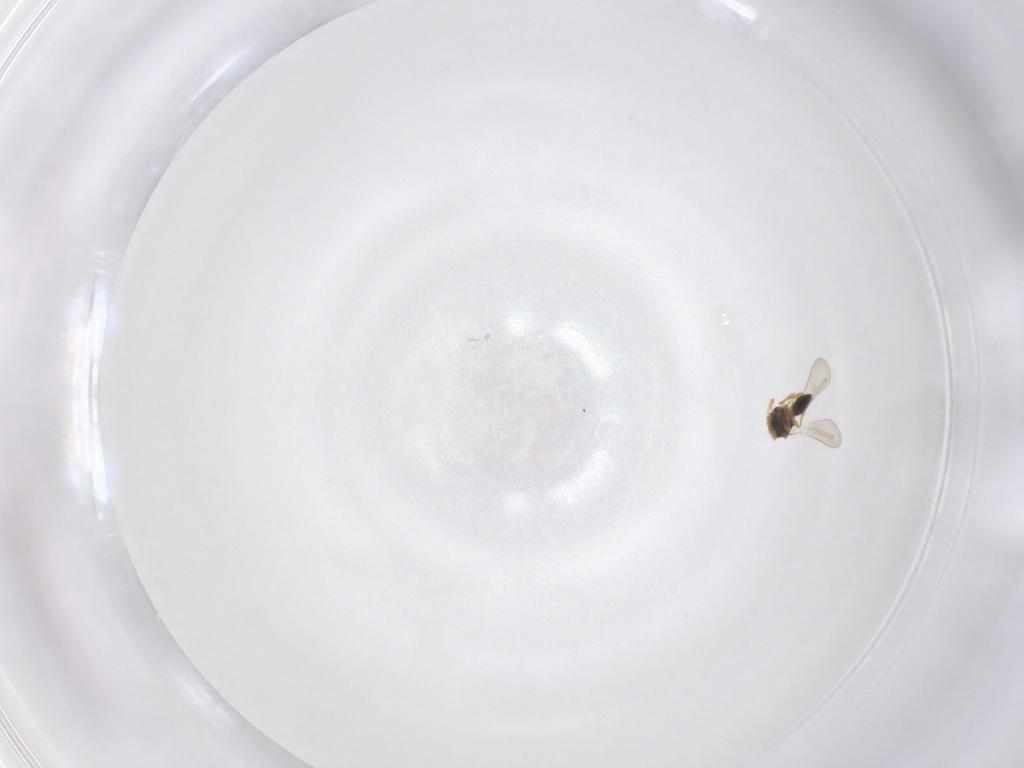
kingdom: Animalia
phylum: Arthropoda
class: Insecta
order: Hymenoptera
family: Platygastridae
